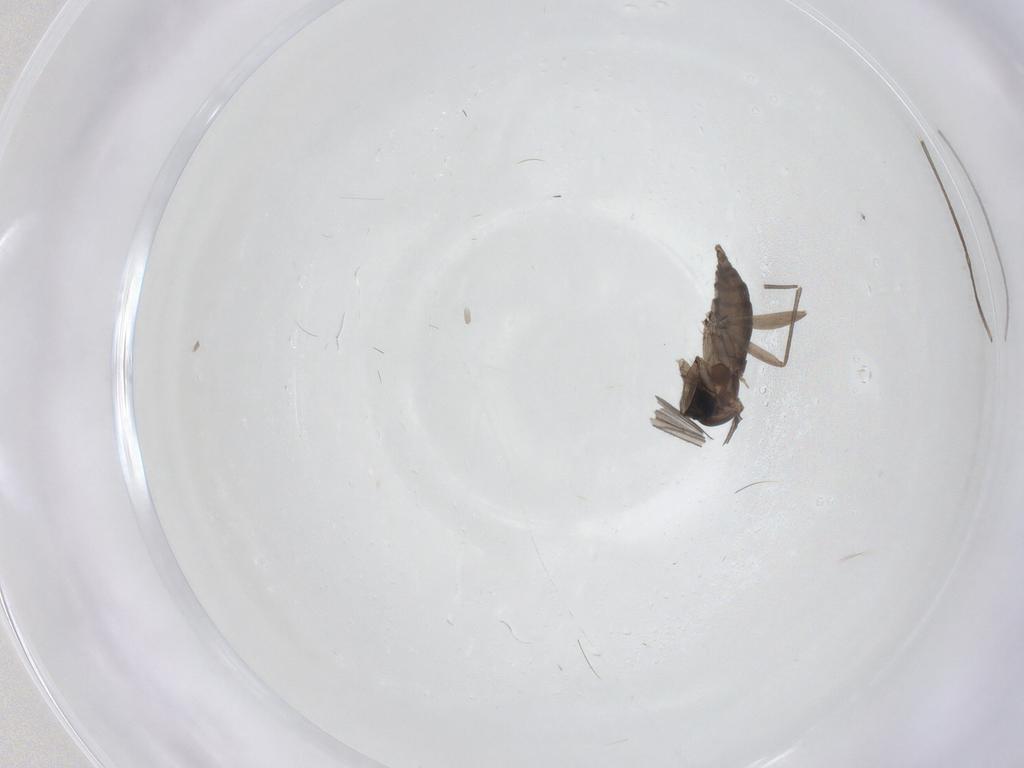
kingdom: Animalia
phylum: Arthropoda
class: Insecta
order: Diptera
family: Sciaridae
